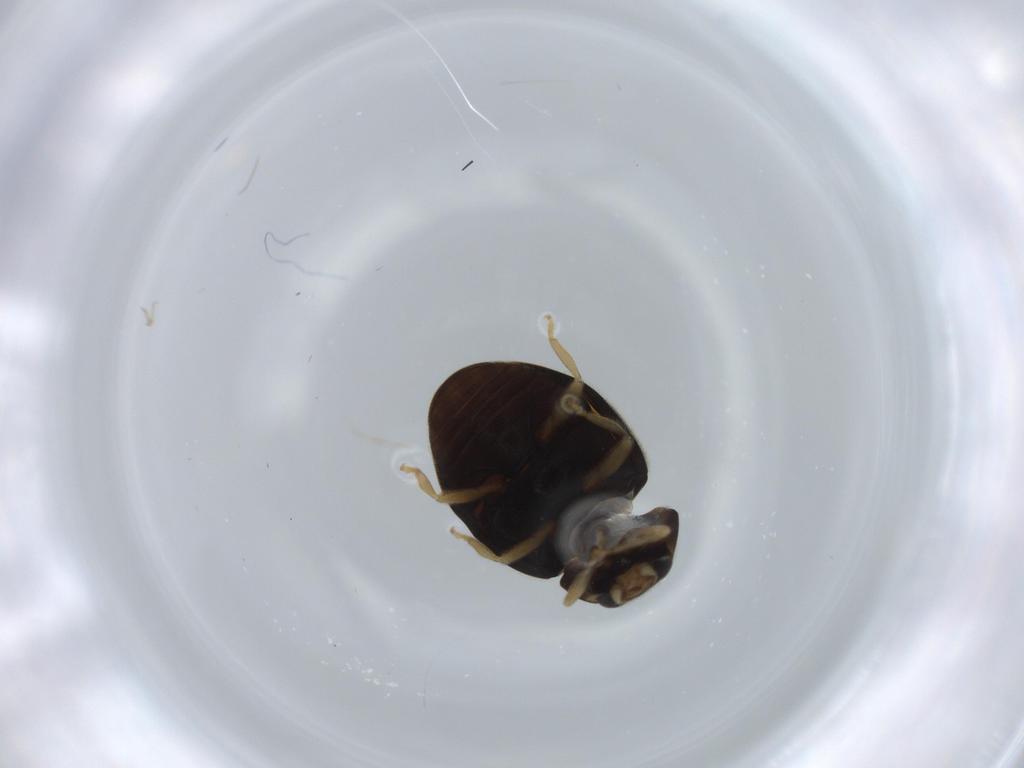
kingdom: Animalia
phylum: Arthropoda
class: Insecta
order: Coleoptera
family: Coccinellidae
